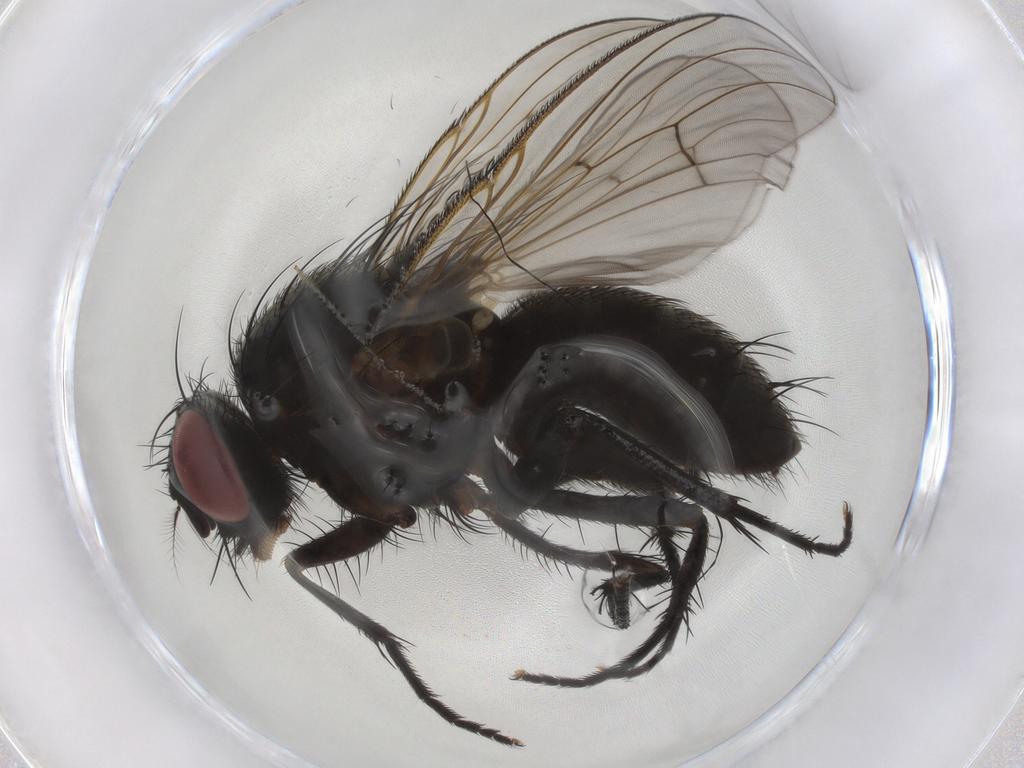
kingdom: Animalia
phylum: Arthropoda
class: Insecta
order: Diptera
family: Muscidae
